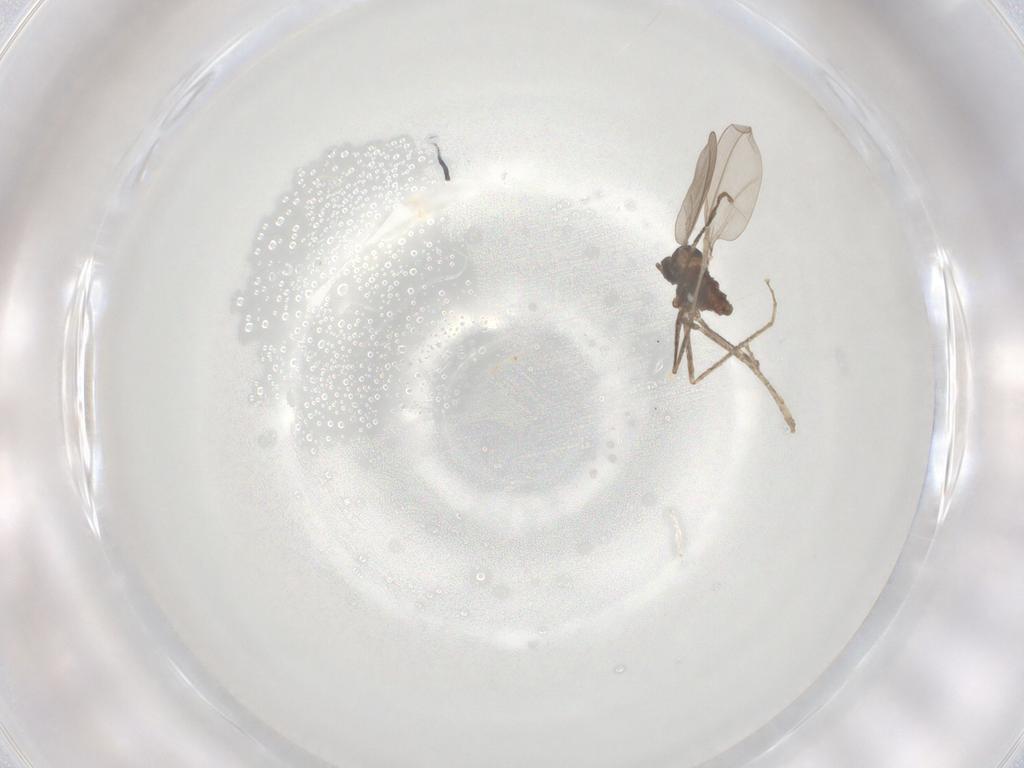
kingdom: Animalia
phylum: Arthropoda
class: Insecta
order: Diptera
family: Cecidomyiidae
